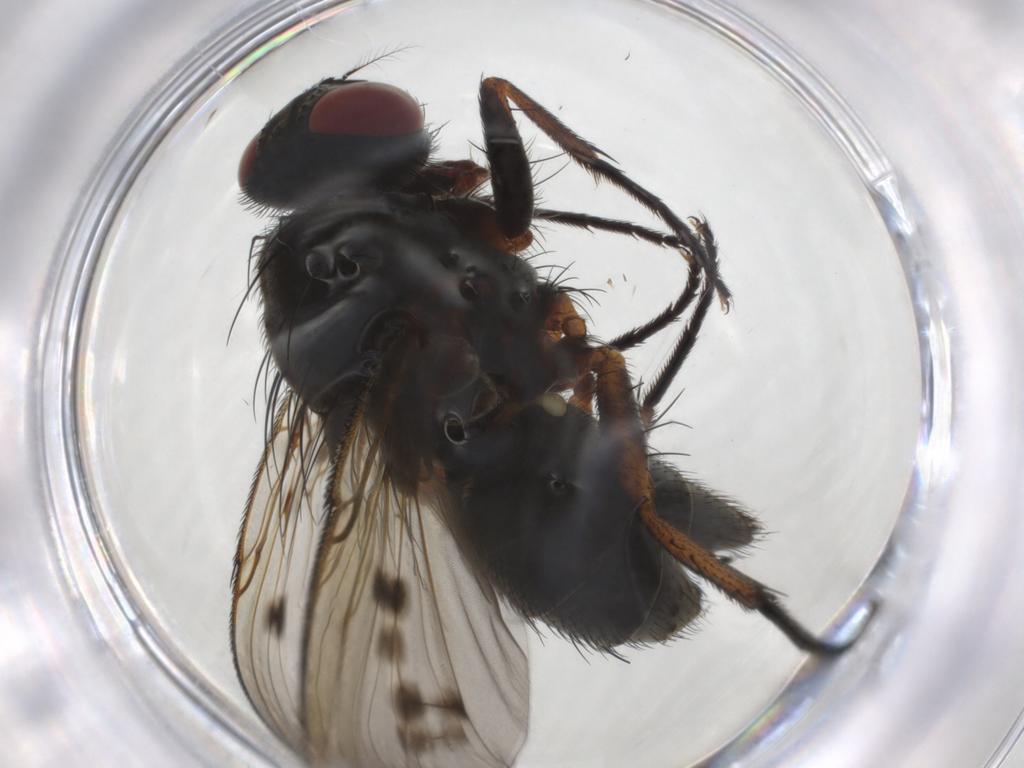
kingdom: Animalia
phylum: Arthropoda
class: Insecta
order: Diptera
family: Muscidae
